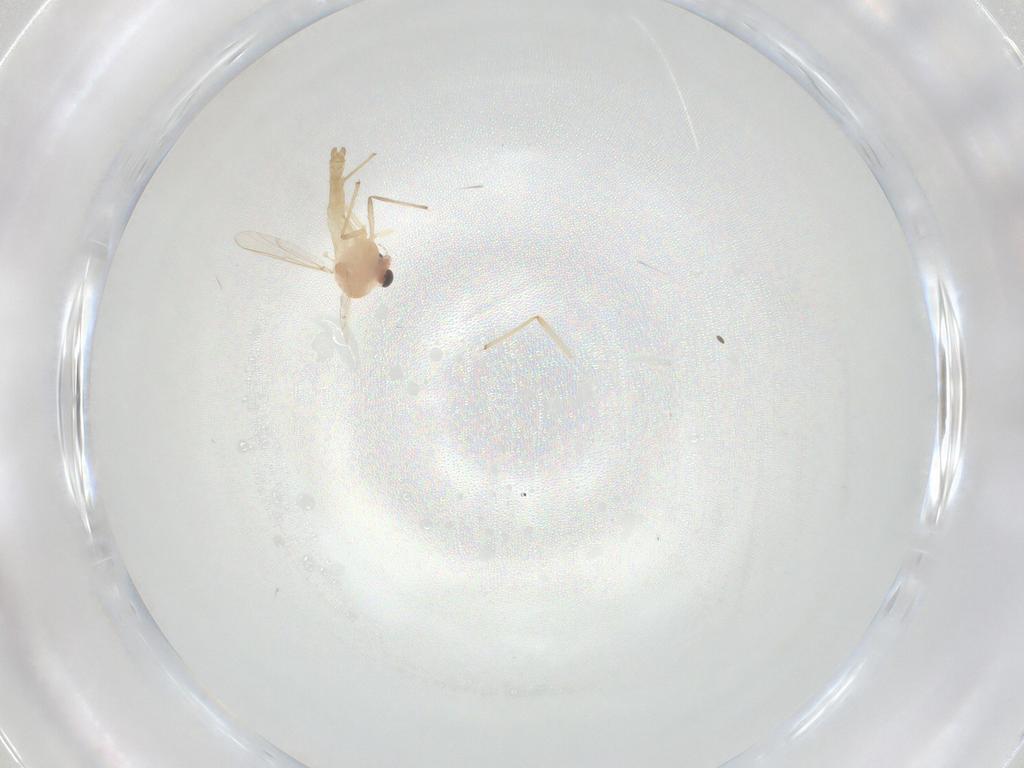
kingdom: Animalia
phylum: Arthropoda
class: Insecta
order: Diptera
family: Chironomidae
